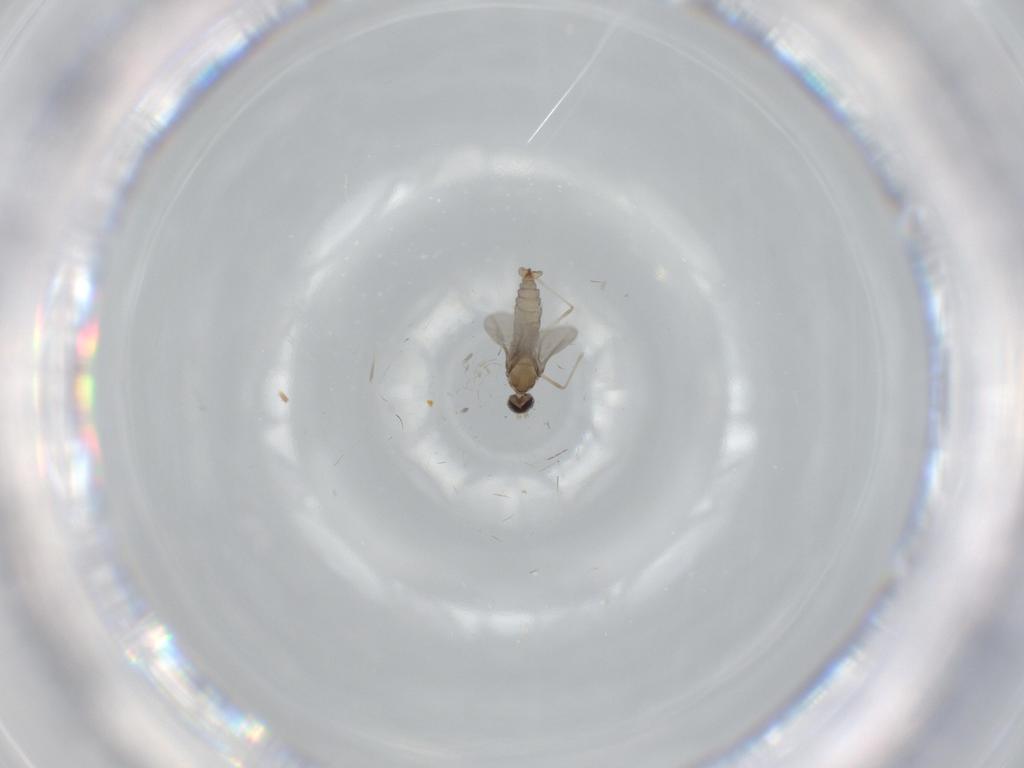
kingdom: Animalia
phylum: Arthropoda
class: Insecta
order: Diptera
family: Cecidomyiidae
